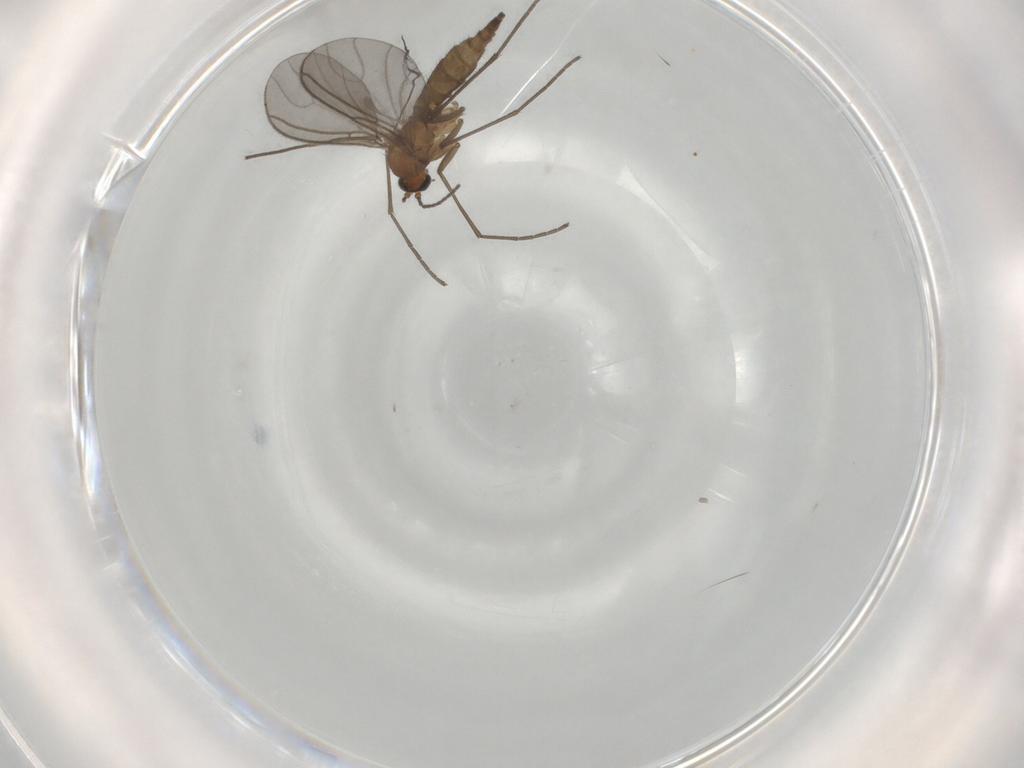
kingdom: Animalia
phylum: Arthropoda
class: Insecta
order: Diptera
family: Sciaridae
